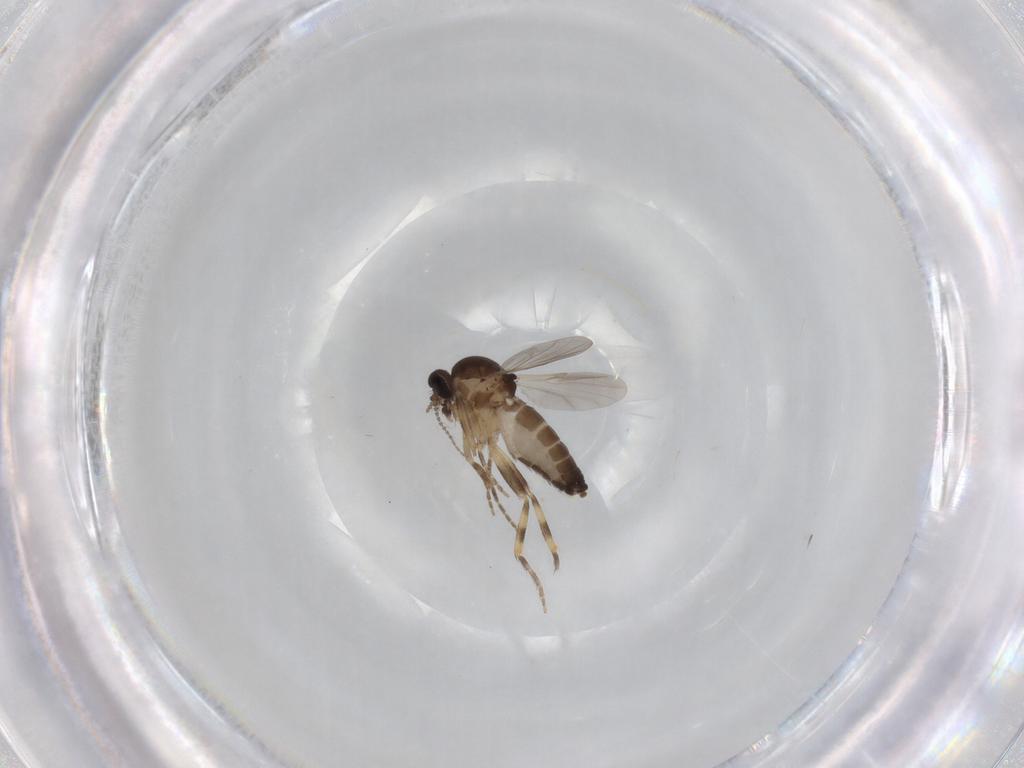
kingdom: Animalia
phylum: Arthropoda
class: Insecta
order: Diptera
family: Ceratopogonidae
